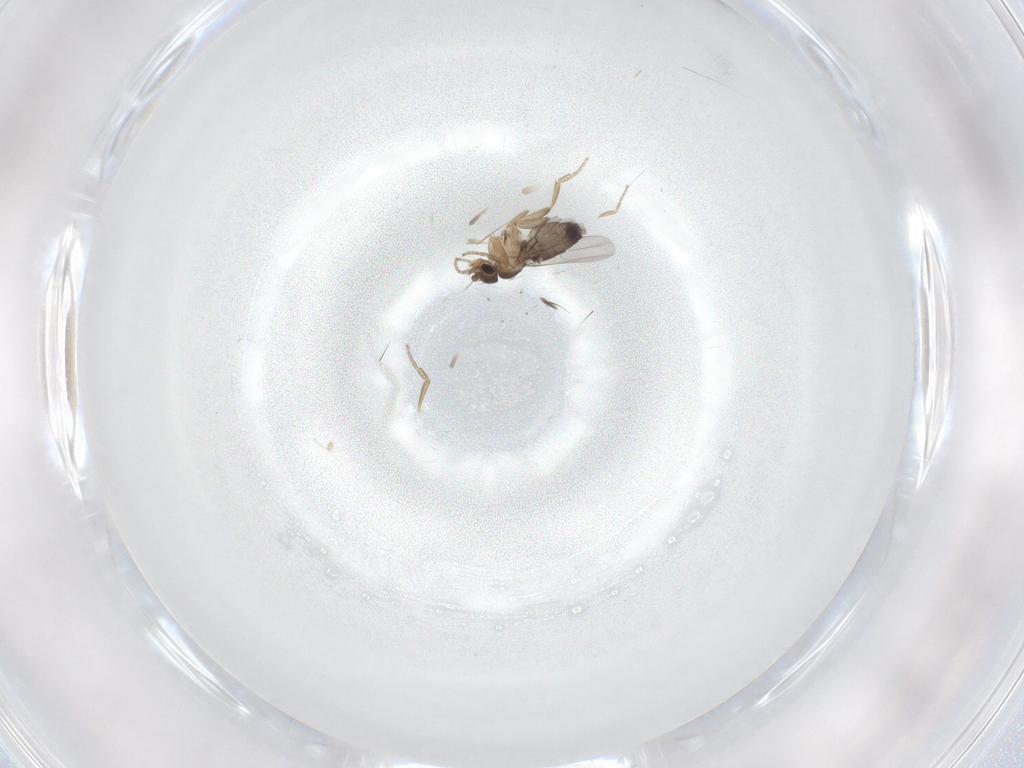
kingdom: Animalia
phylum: Arthropoda
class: Insecta
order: Diptera
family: Phoridae
